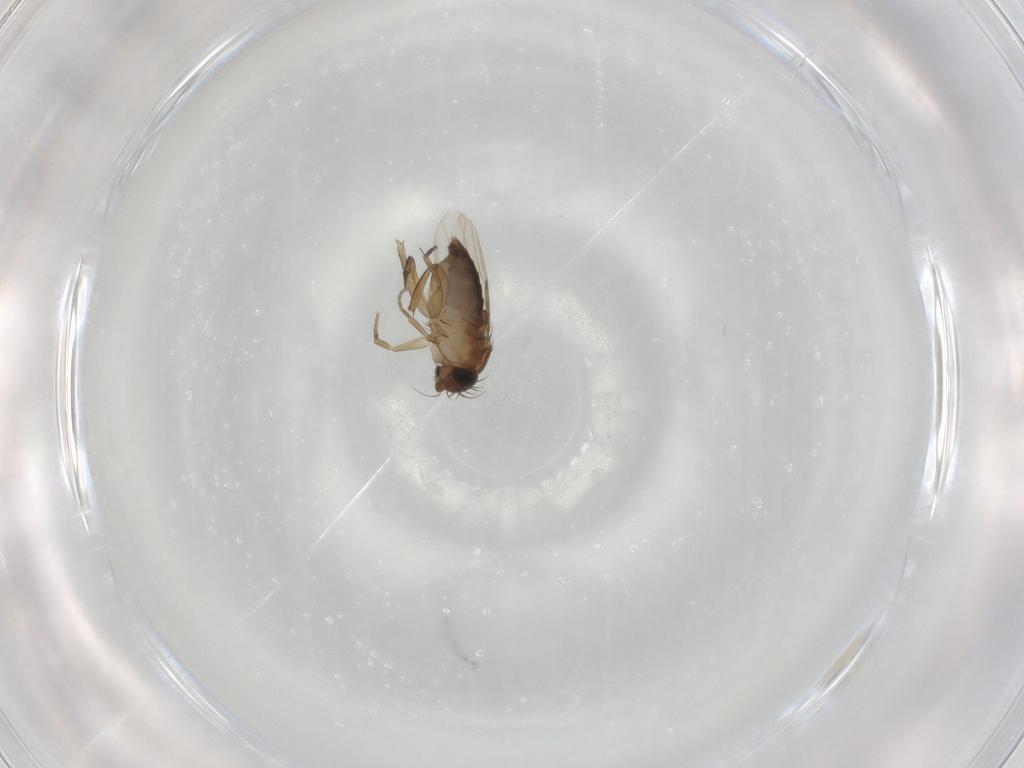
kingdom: Animalia
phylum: Arthropoda
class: Insecta
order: Diptera
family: Phoridae
